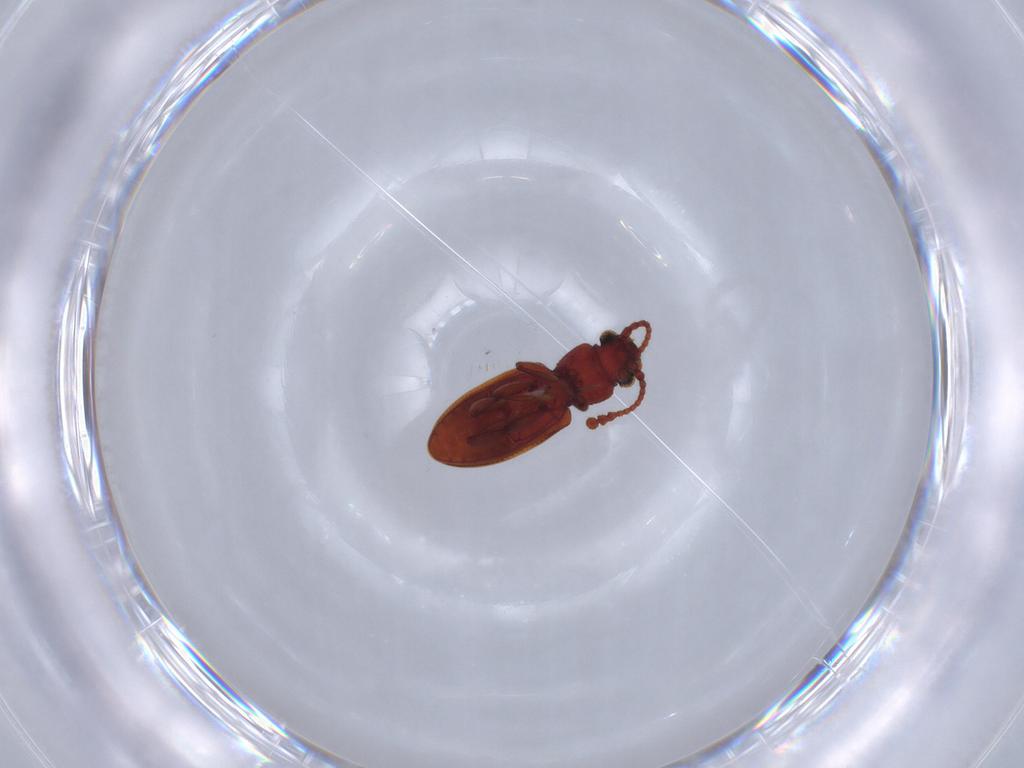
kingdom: Animalia
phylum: Arthropoda
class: Insecta
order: Coleoptera
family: Silvanidae
